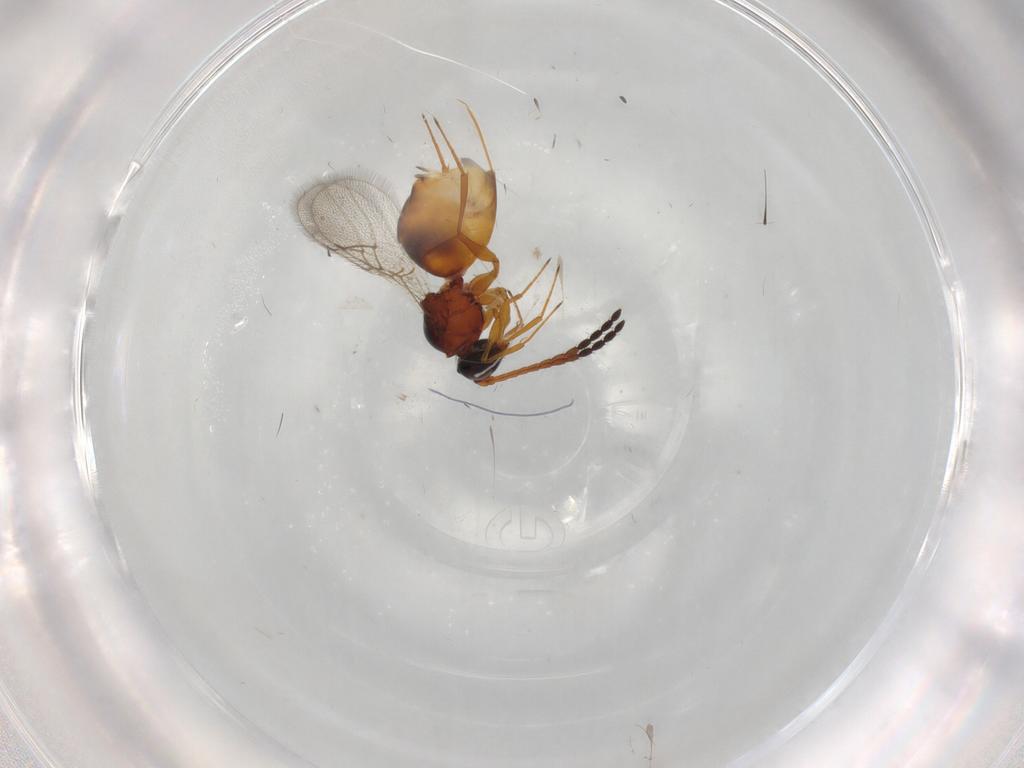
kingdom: Animalia
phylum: Arthropoda
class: Insecta
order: Hymenoptera
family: Figitidae
